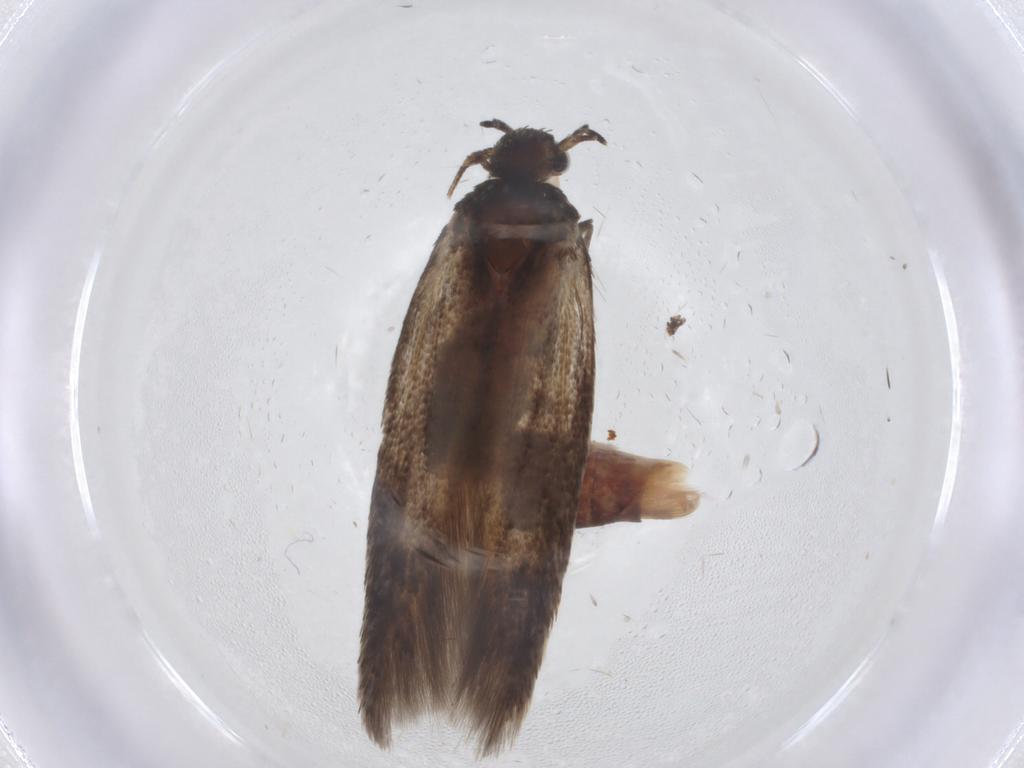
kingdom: Animalia
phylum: Arthropoda
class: Insecta
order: Lepidoptera
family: Cosmopterigidae
